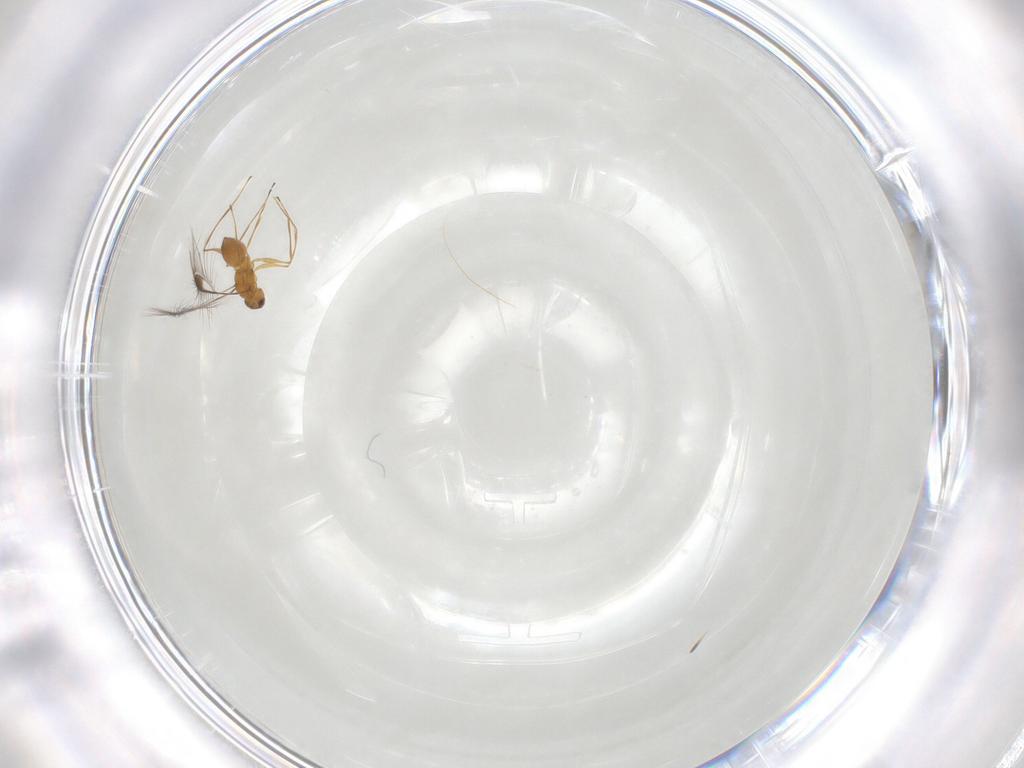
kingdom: Animalia
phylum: Arthropoda
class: Insecta
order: Hymenoptera
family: Mymaridae
